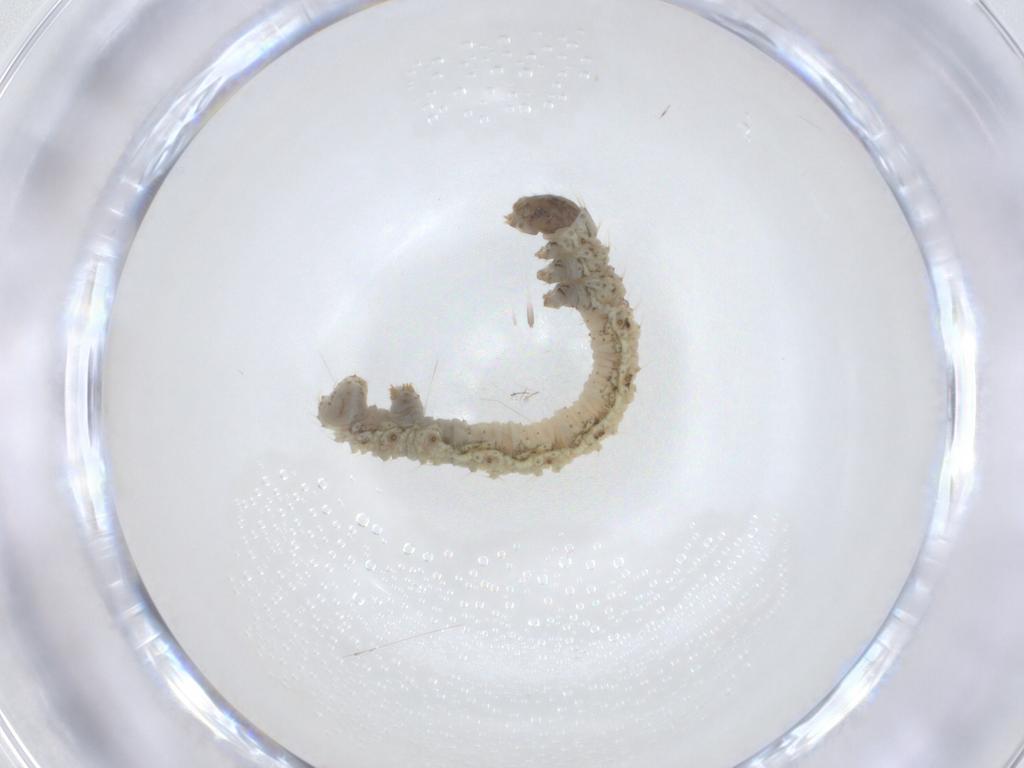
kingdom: Animalia
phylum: Arthropoda
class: Insecta
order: Lepidoptera
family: Geometridae
